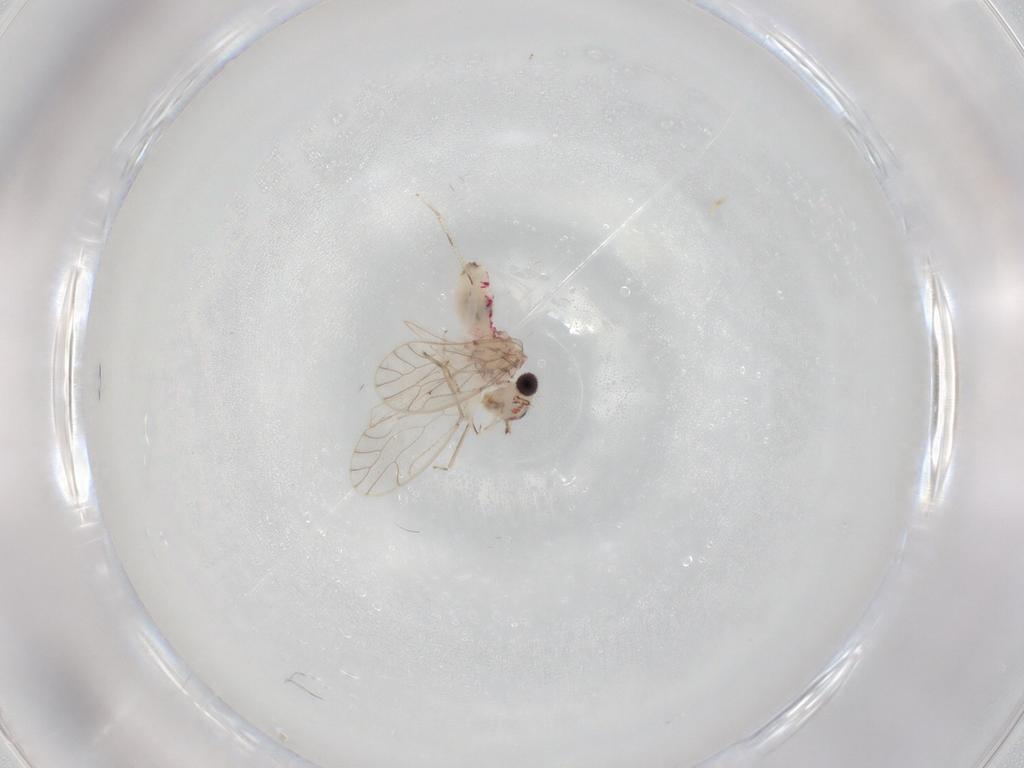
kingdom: Animalia
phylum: Arthropoda
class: Insecta
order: Psocodea
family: Caeciliusidae
